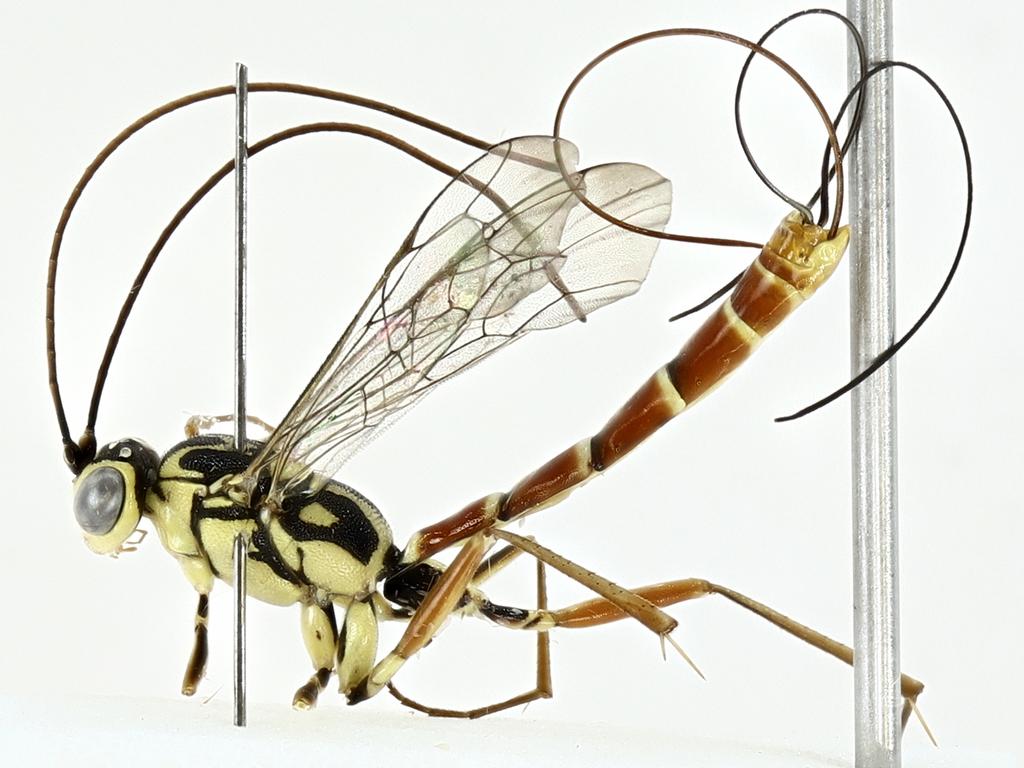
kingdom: Animalia
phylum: Arthropoda
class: Insecta
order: Hymenoptera
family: Ichneumonidae
